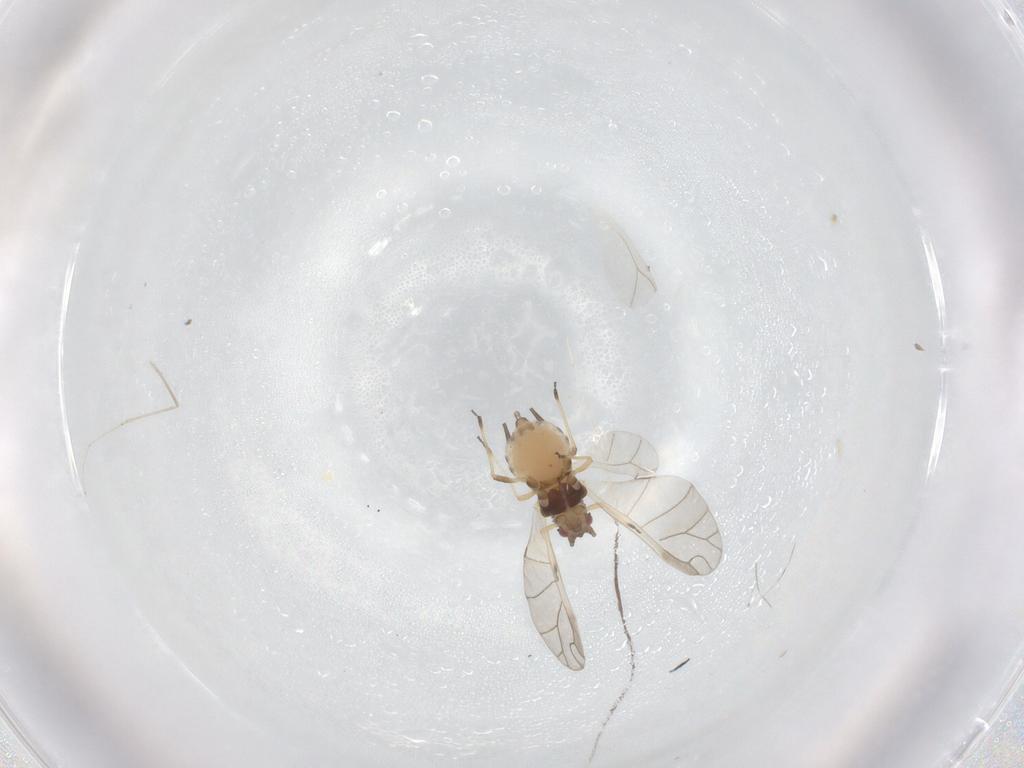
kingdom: Animalia
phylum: Arthropoda
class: Insecta
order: Hemiptera
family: Aphididae
